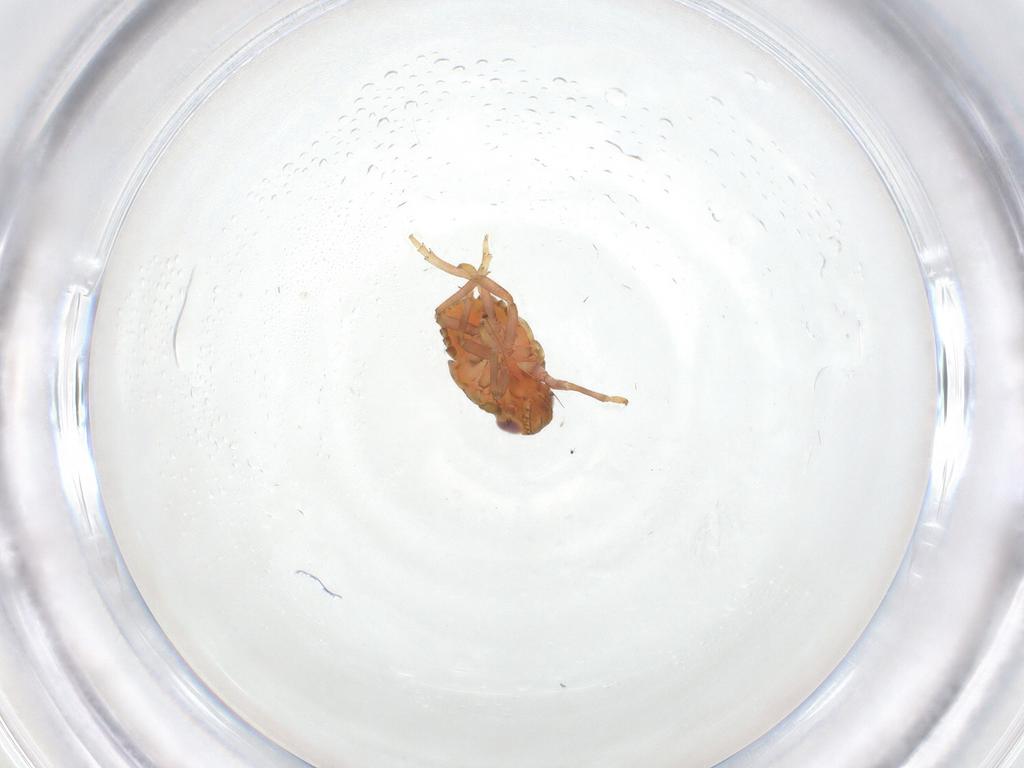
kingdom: Animalia
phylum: Arthropoda
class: Insecta
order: Hemiptera
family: Issidae
